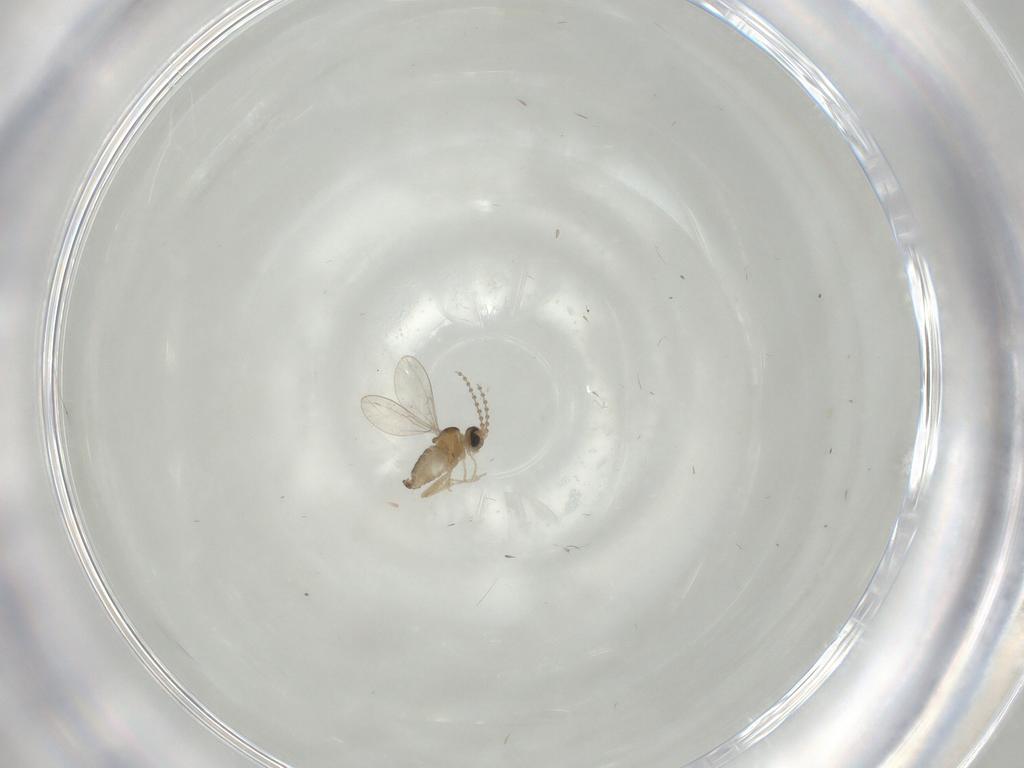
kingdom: Animalia
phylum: Arthropoda
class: Insecta
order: Diptera
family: Cecidomyiidae
